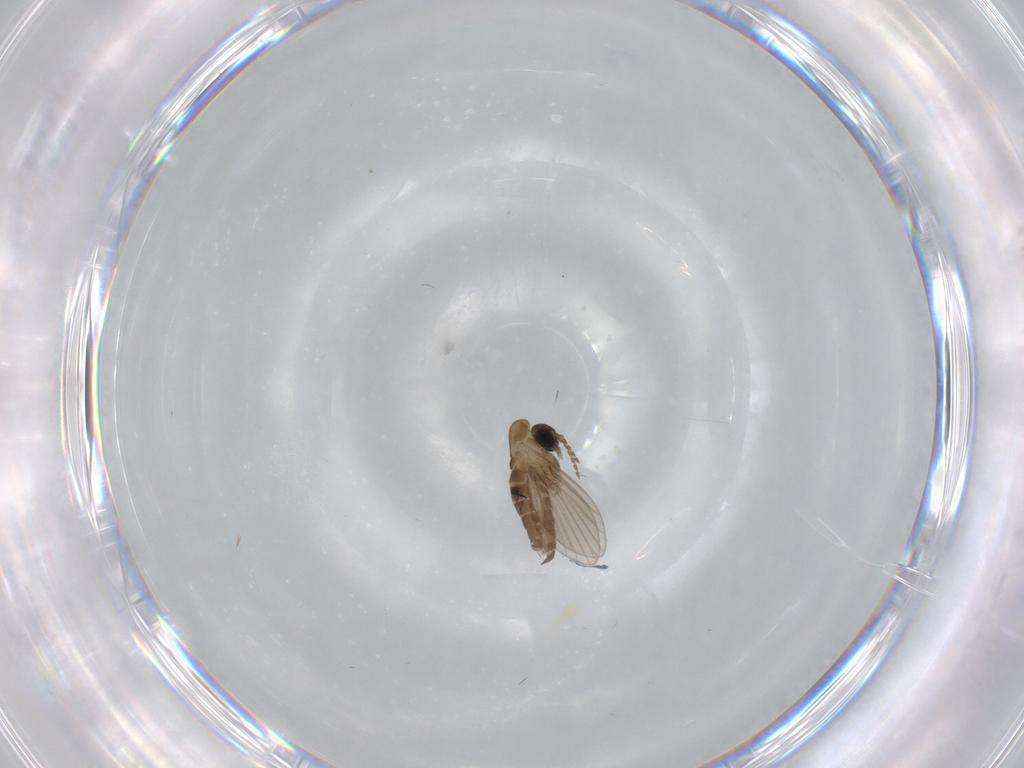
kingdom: Animalia
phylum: Arthropoda
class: Insecta
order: Diptera
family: Psychodidae
